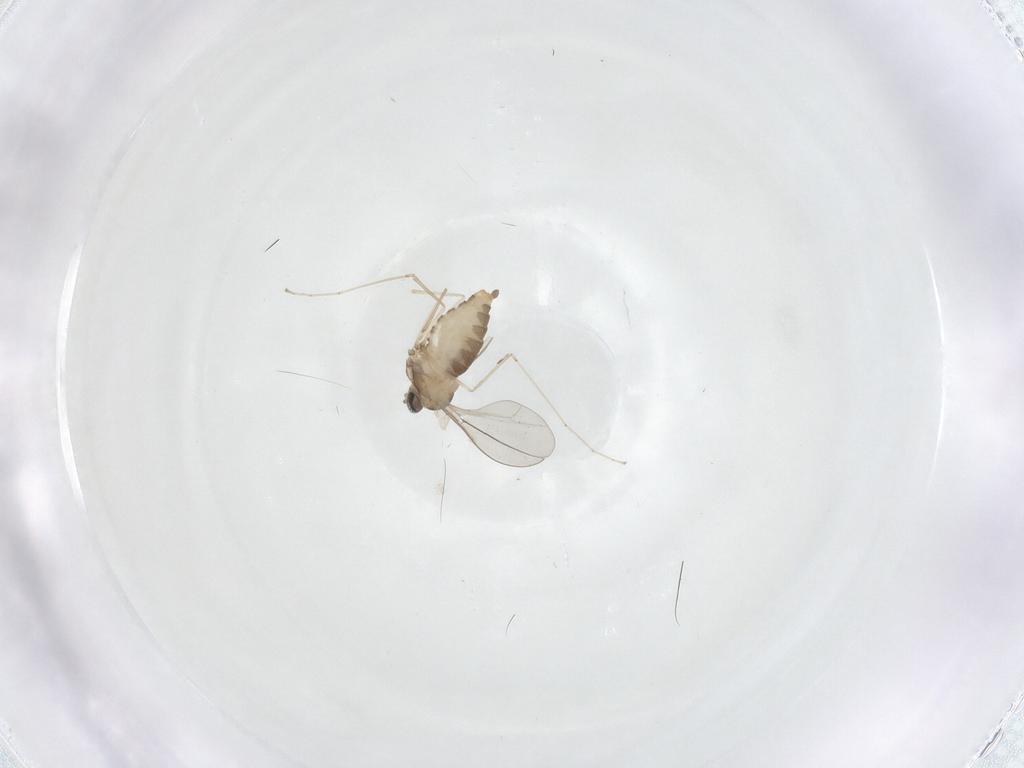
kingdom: Animalia
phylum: Arthropoda
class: Insecta
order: Diptera
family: Cecidomyiidae
